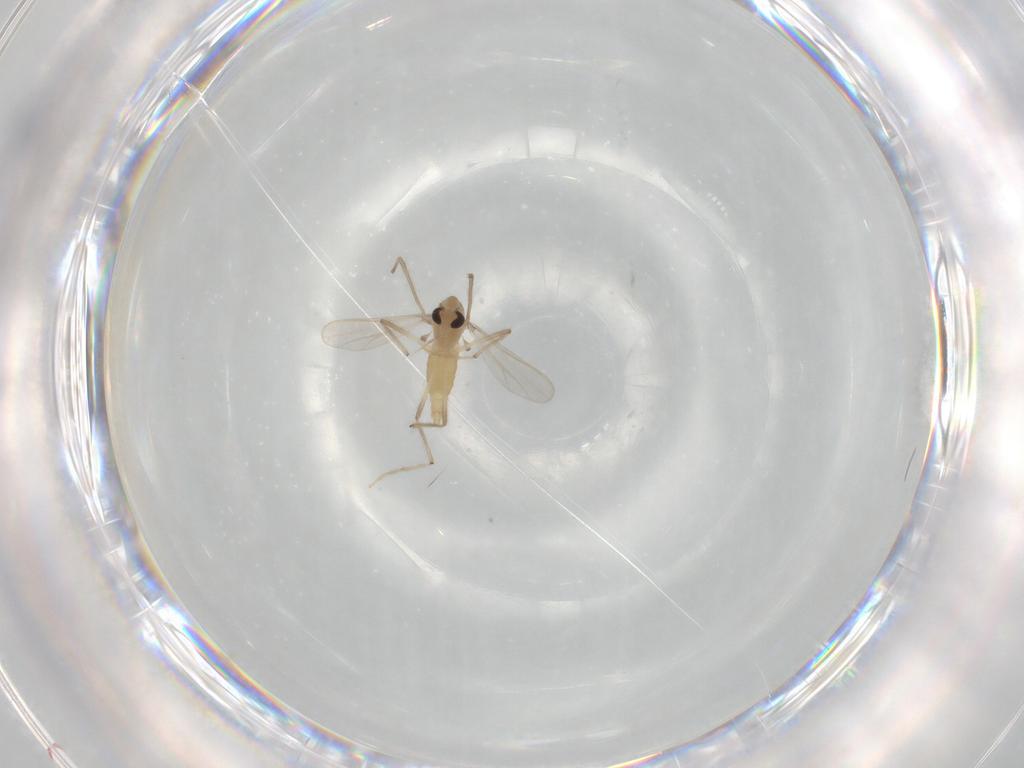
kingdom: Animalia
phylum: Arthropoda
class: Insecta
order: Diptera
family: Chironomidae
